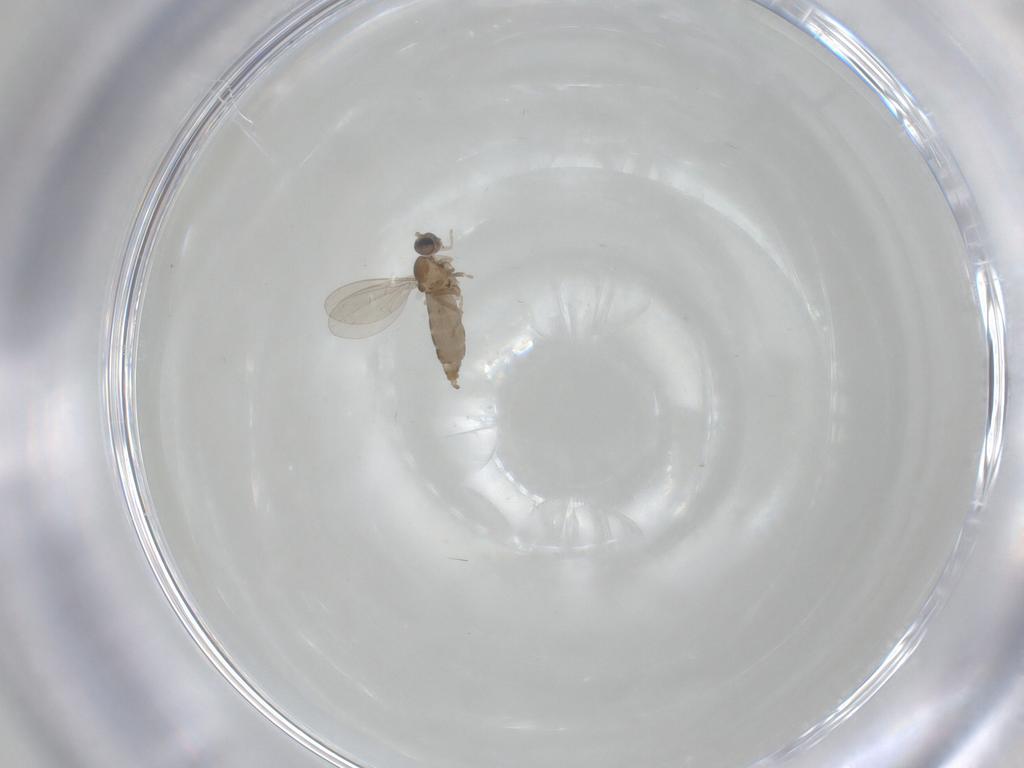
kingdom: Animalia
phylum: Arthropoda
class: Insecta
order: Diptera
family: Cecidomyiidae
